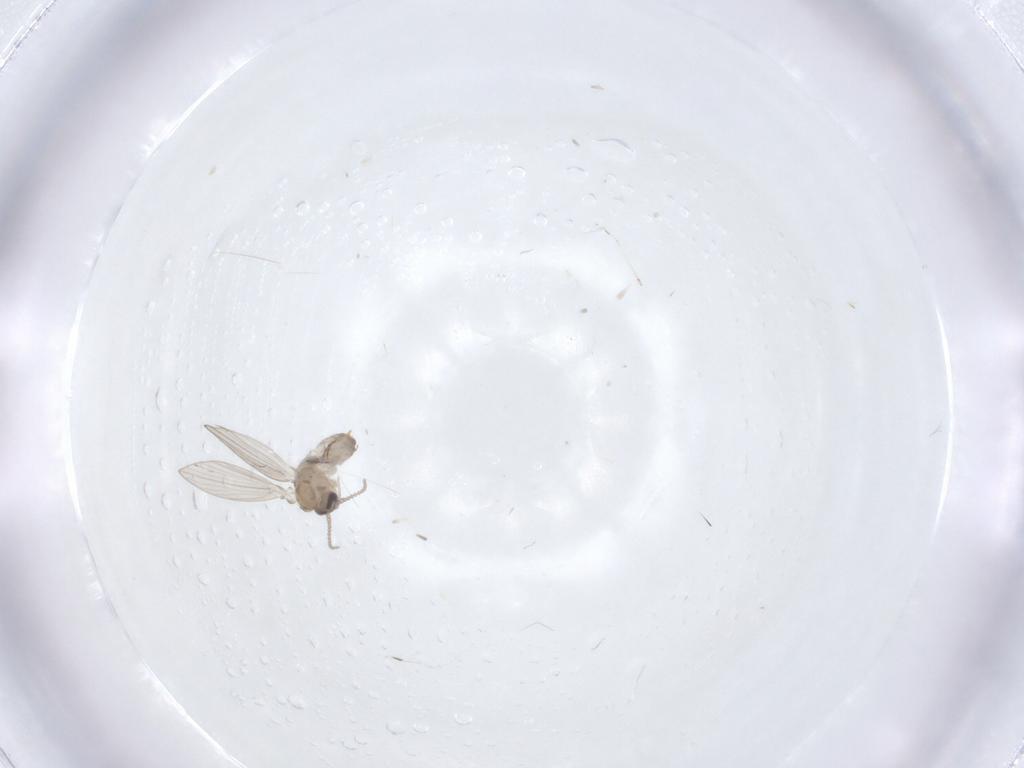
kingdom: Animalia
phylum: Arthropoda
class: Insecta
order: Diptera
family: Cecidomyiidae
